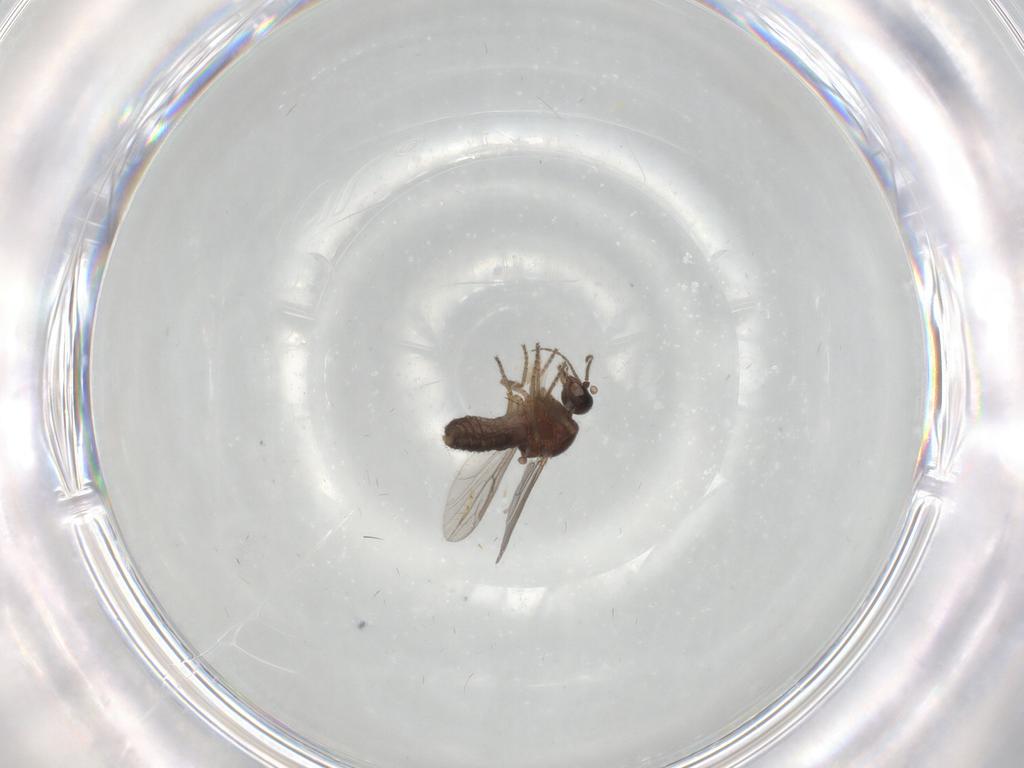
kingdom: Animalia
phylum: Arthropoda
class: Insecta
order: Diptera
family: Ceratopogonidae
